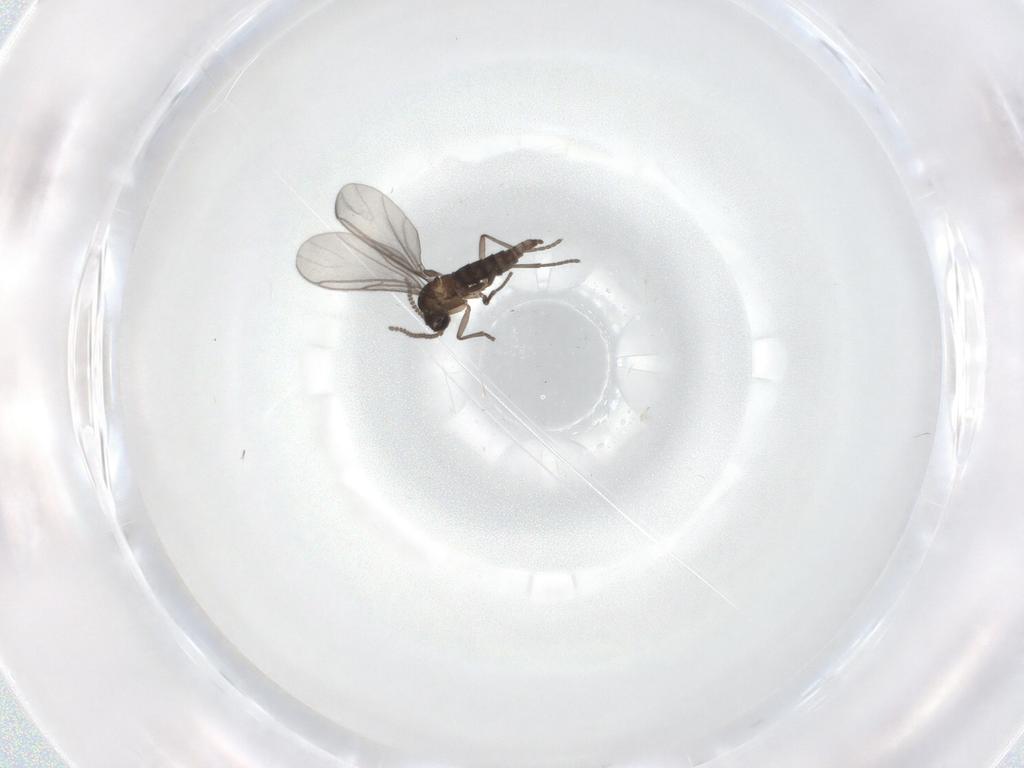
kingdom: Animalia
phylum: Arthropoda
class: Insecta
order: Diptera
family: Chironomidae
